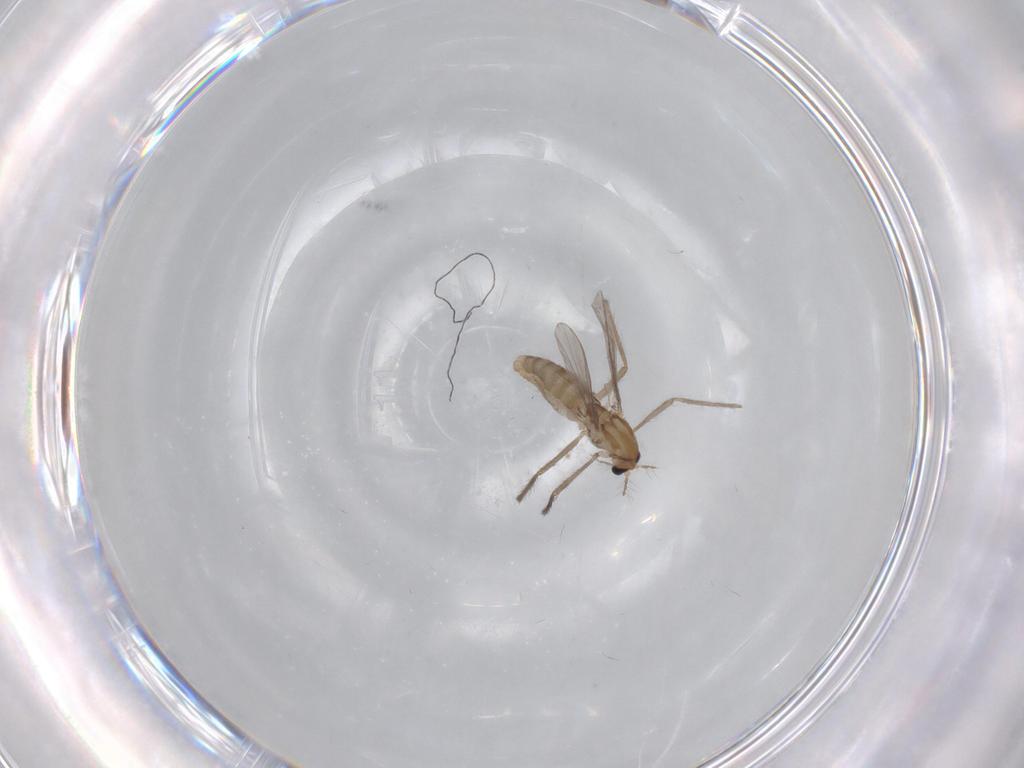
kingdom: Animalia
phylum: Arthropoda
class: Insecta
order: Diptera
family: Chironomidae
